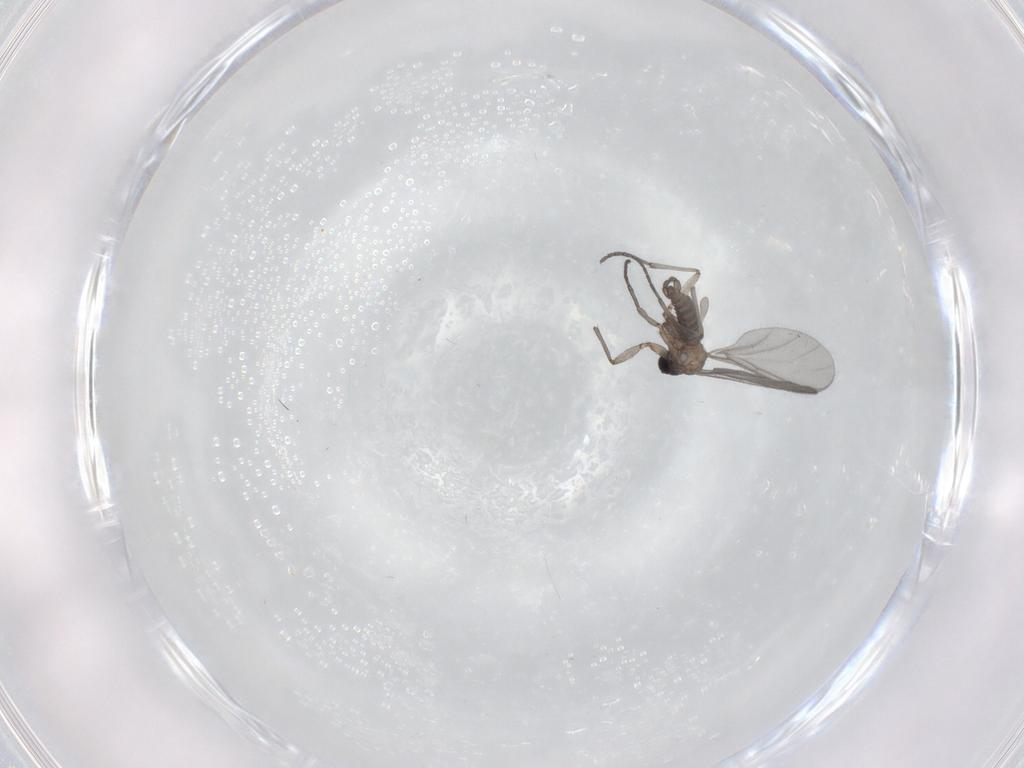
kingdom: Animalia
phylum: Arthropoda
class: Insecta
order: Diptera
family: Sciaridae
